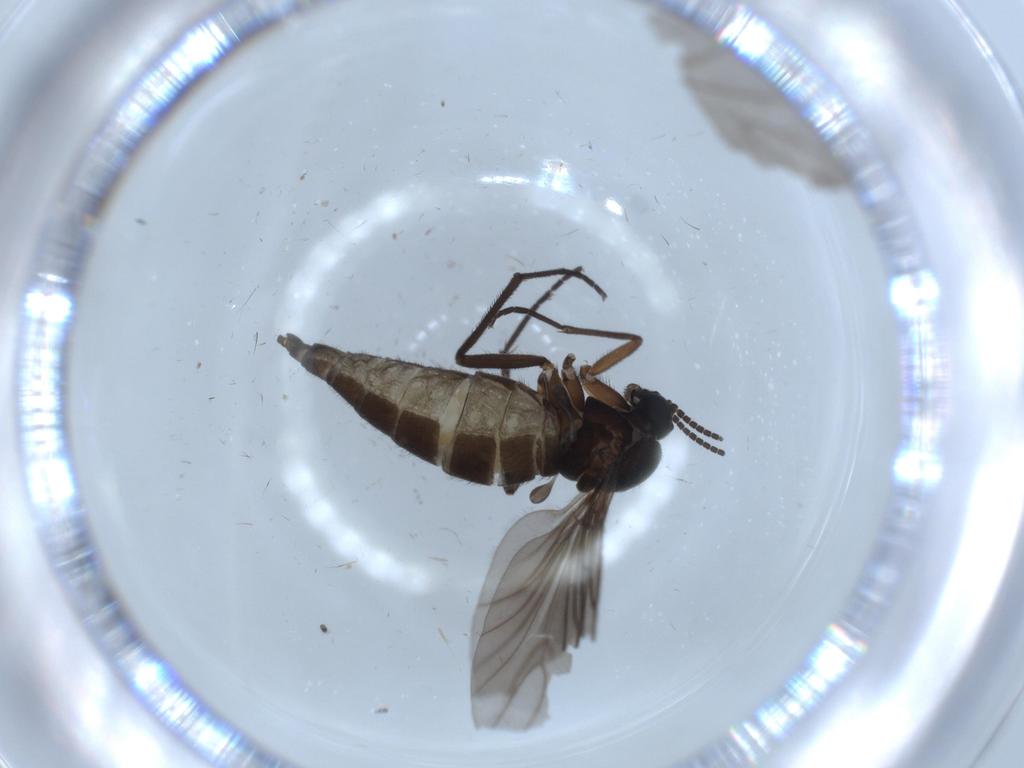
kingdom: Animalia
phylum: Arthropoda
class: Insecta
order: Diptera
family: Sciaridae
